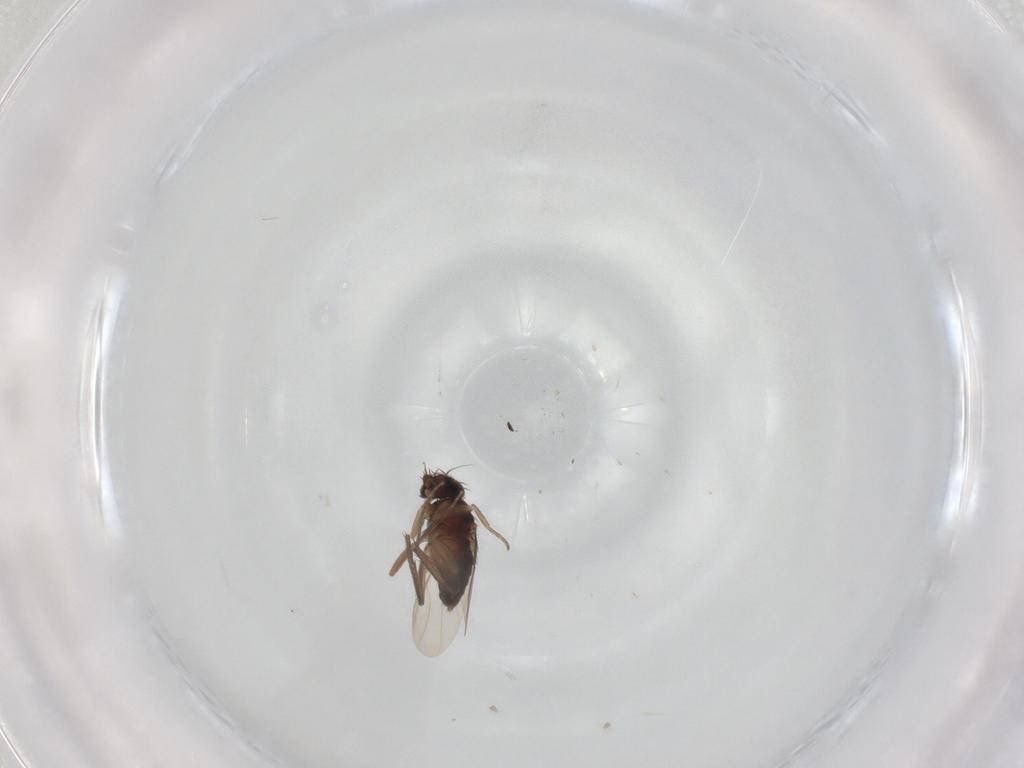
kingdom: Animalia
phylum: Arthropoda
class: Insecta
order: Diptera
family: Phoridae
